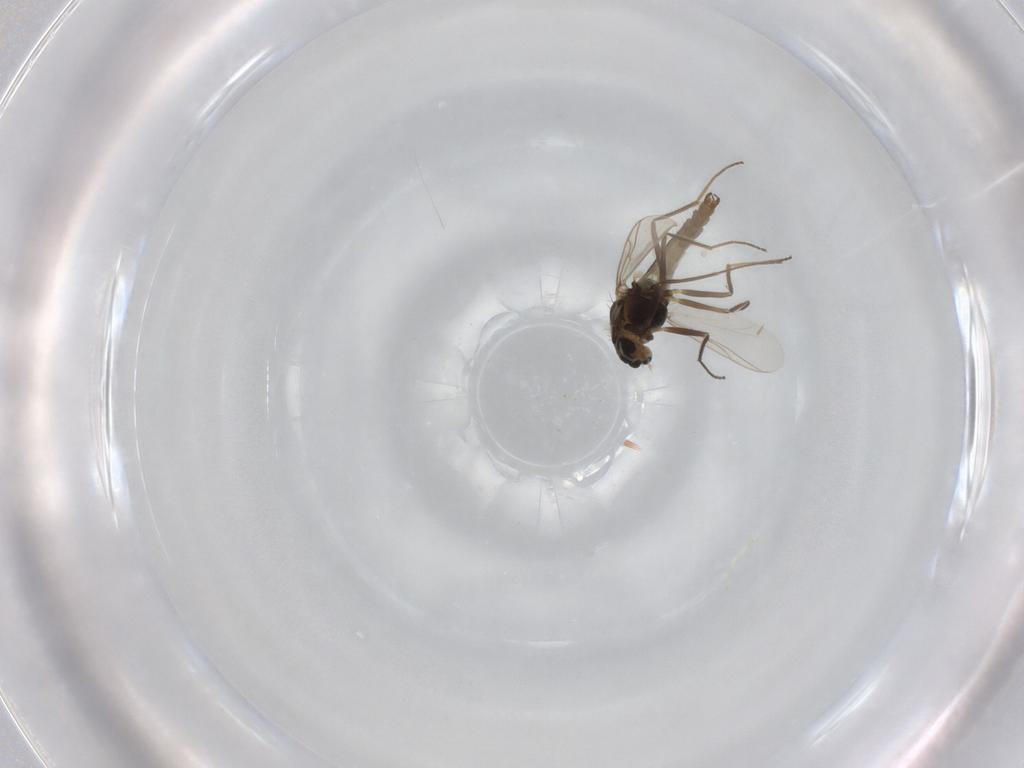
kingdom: Animalia
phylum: Arthropoda
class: Insecta
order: Diptera
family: Chironomidae
